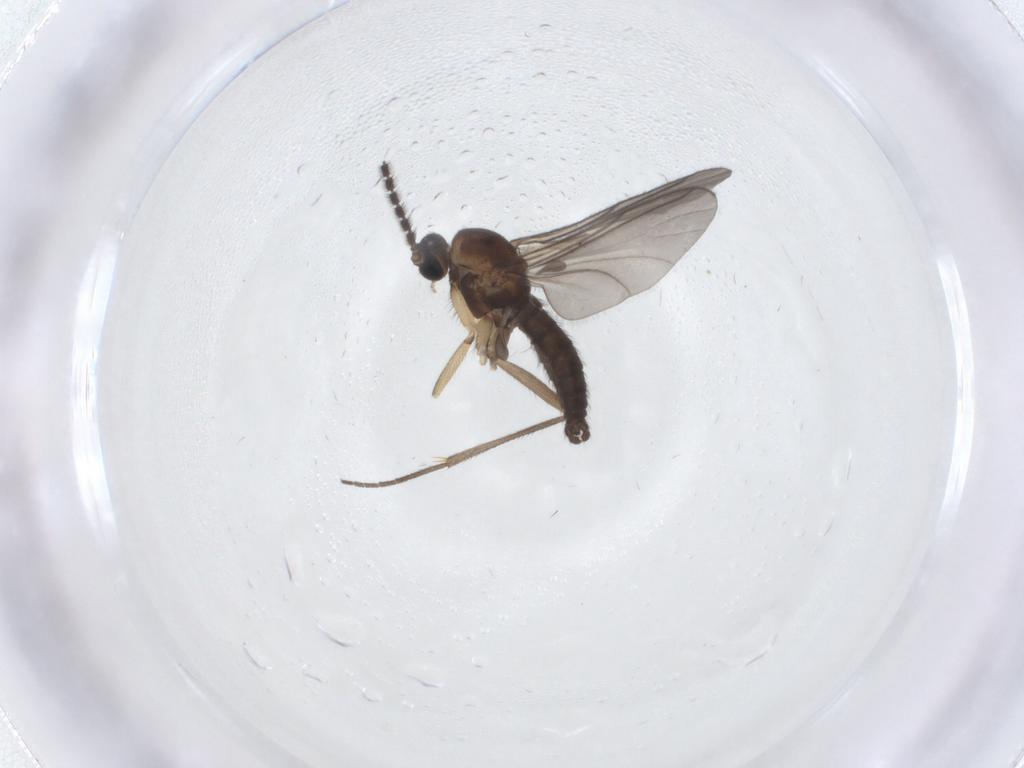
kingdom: Animalia
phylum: Arthropoda
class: Insecta
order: Diptera
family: Sciaridae
